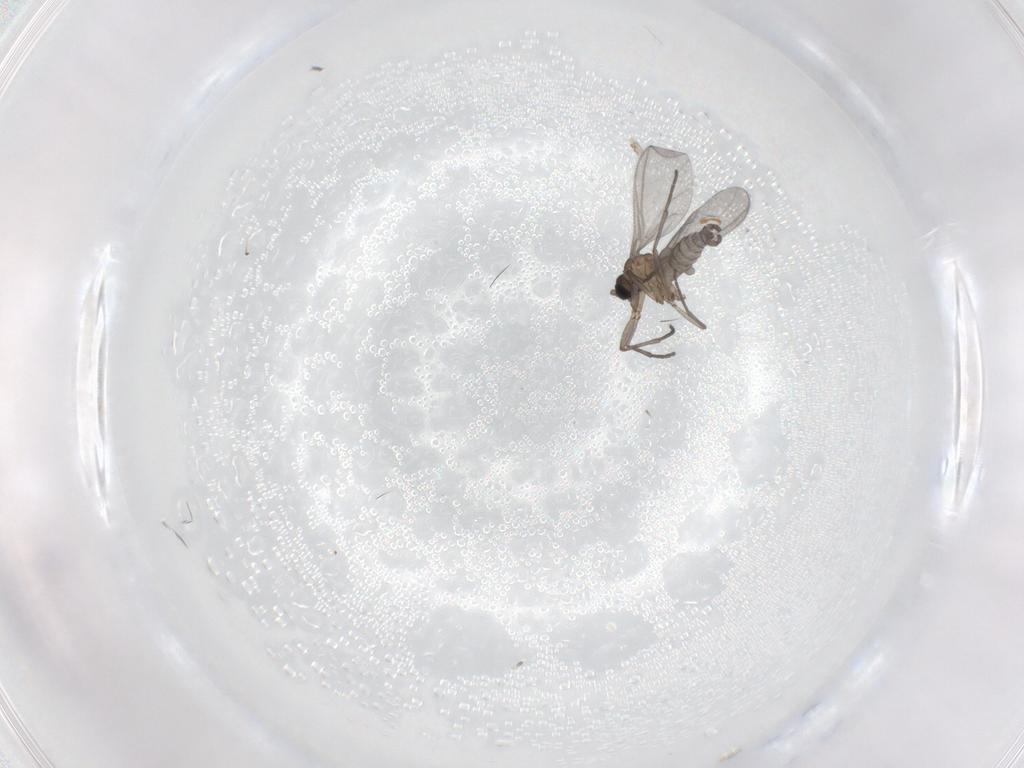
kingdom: Animalia
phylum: Arthropoda
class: Insecta
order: Diptera
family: Sciaridae
